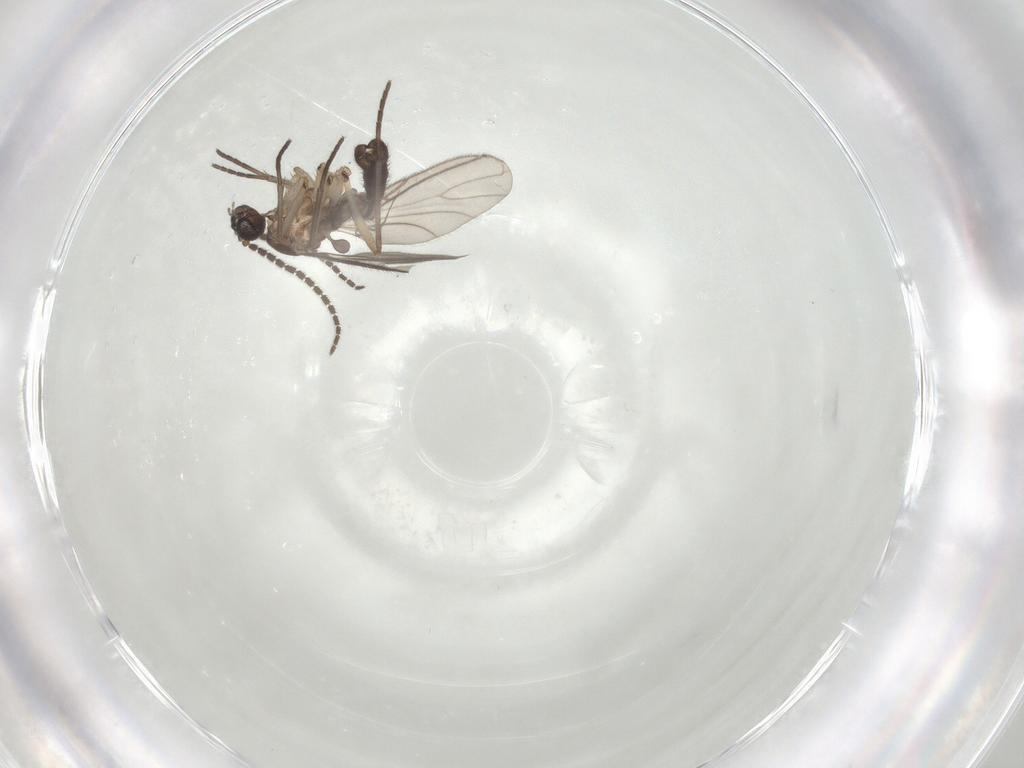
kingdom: Animalia
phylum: Arthropoda
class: Insecta
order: Diptera
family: Sciaridae
